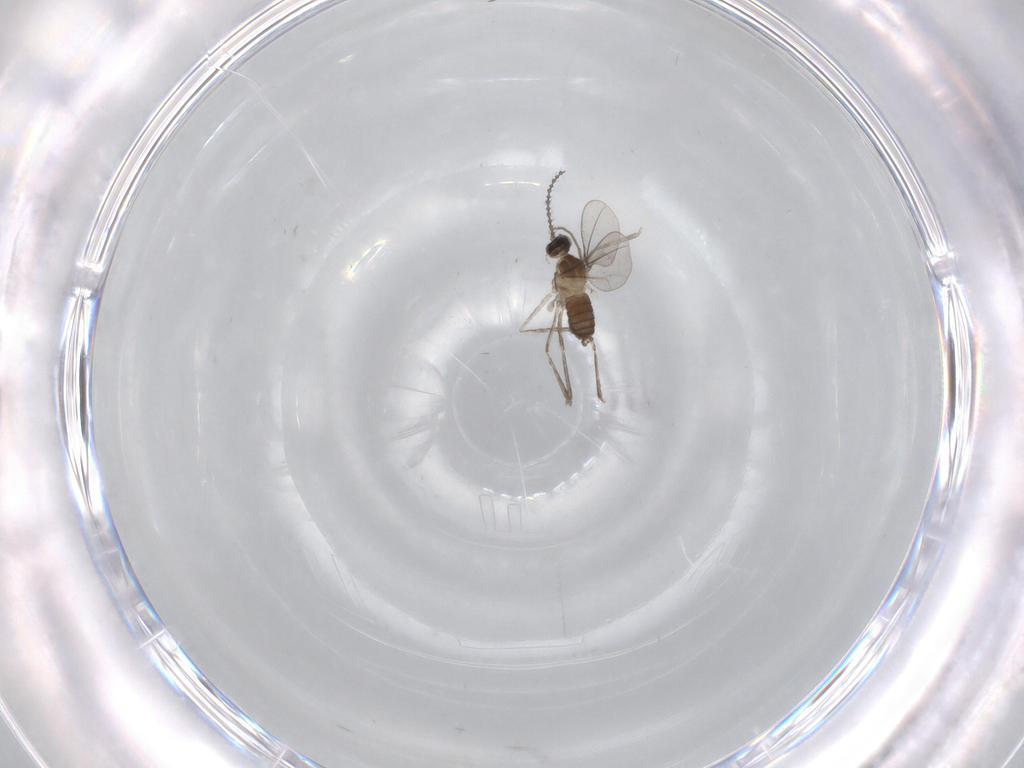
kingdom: Animalia
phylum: Arthropoda
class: Insecta
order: Diptera
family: Cecidomyiidae
